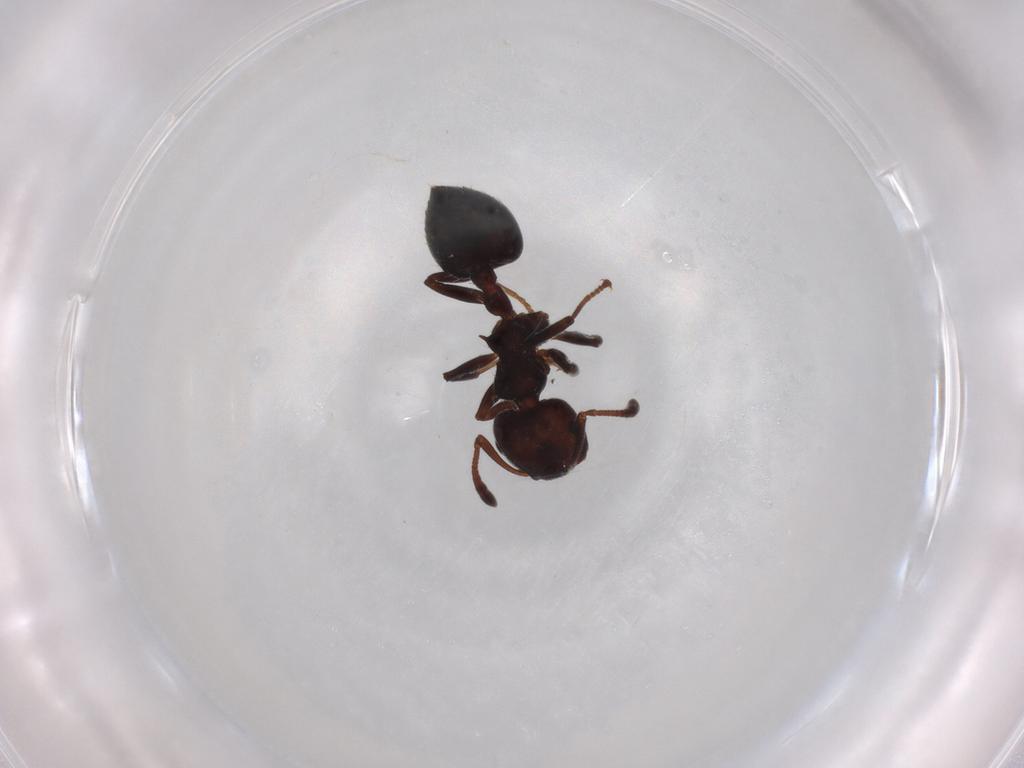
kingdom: Animalia
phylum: Arthropoda
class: Insecta
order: Hymenoptera
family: Formicidae
